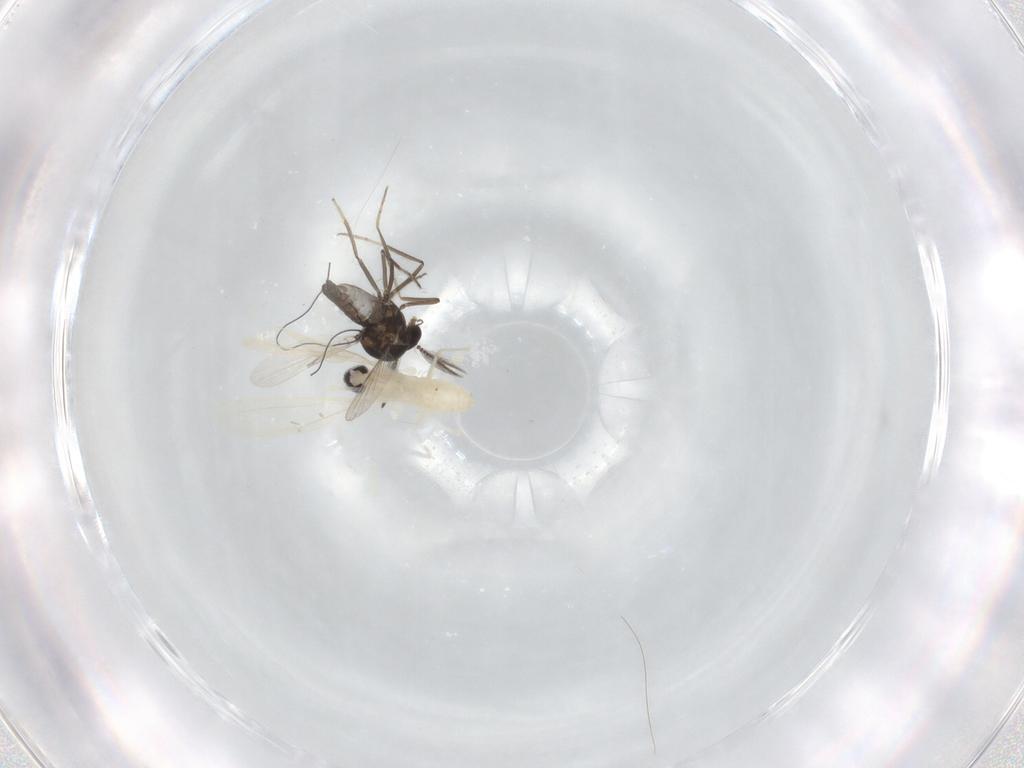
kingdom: Animalia
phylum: Arthropoda
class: Insecta
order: Diptera
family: Ceratopogonidae
